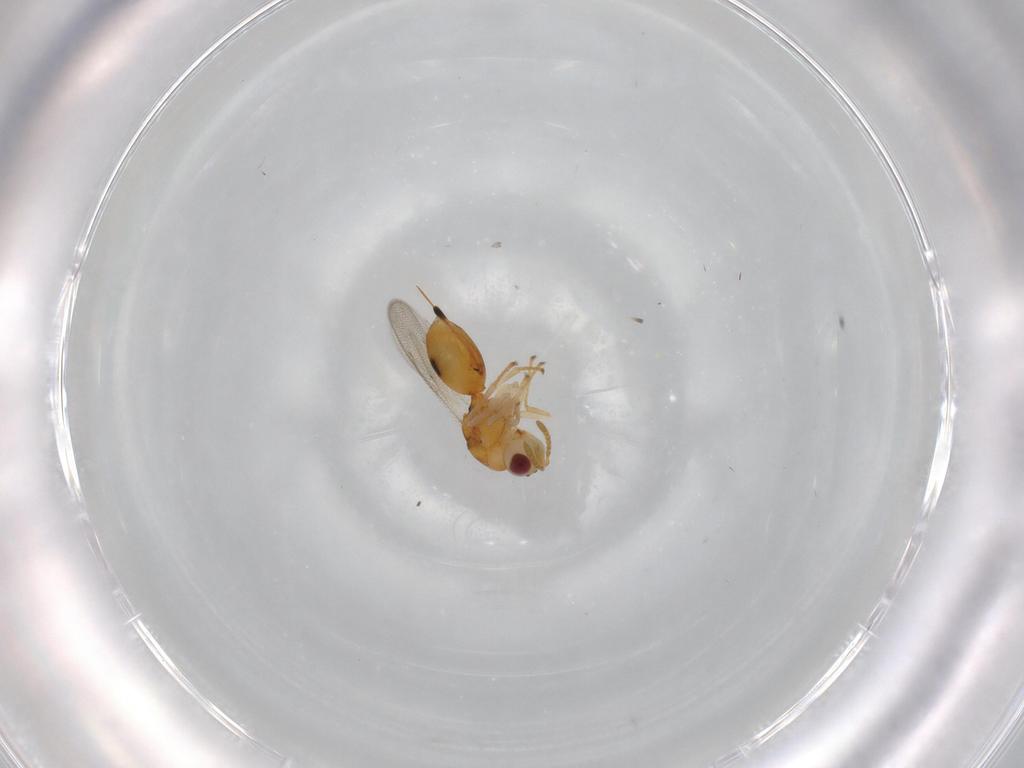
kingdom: Animalia
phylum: Arthropoda
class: Insecta
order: Hymenoptera
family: Eurytomidae
